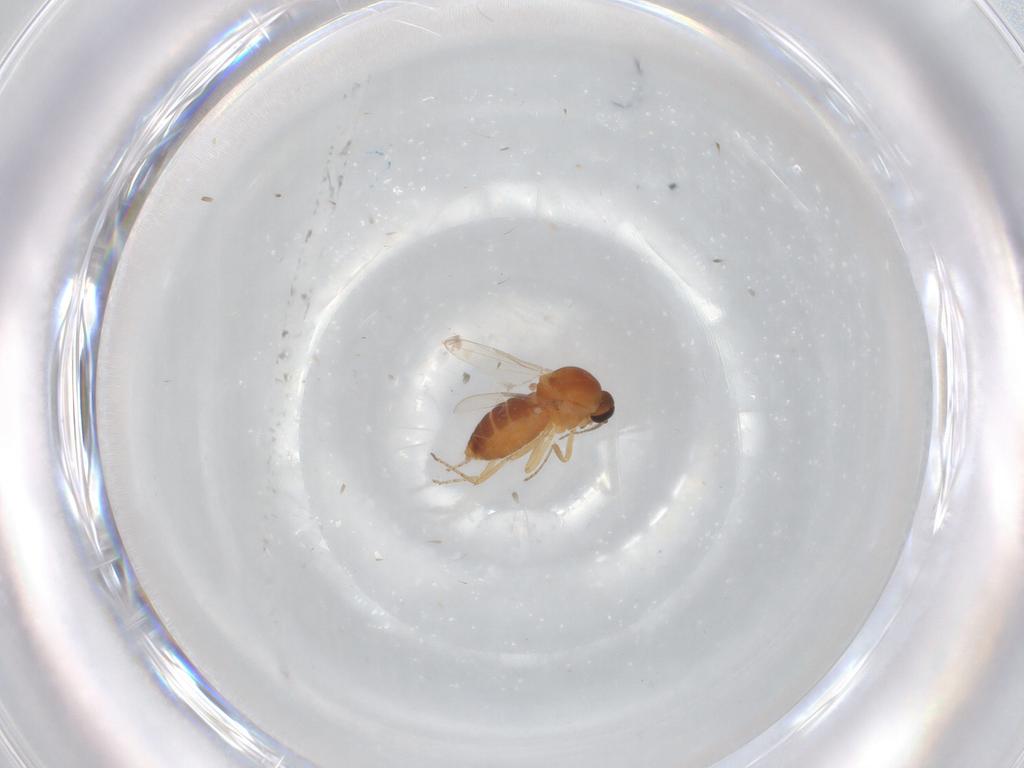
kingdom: Animalia
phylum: Arthropoda
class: Insecta
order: Diptera
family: Ceratopogonidae
